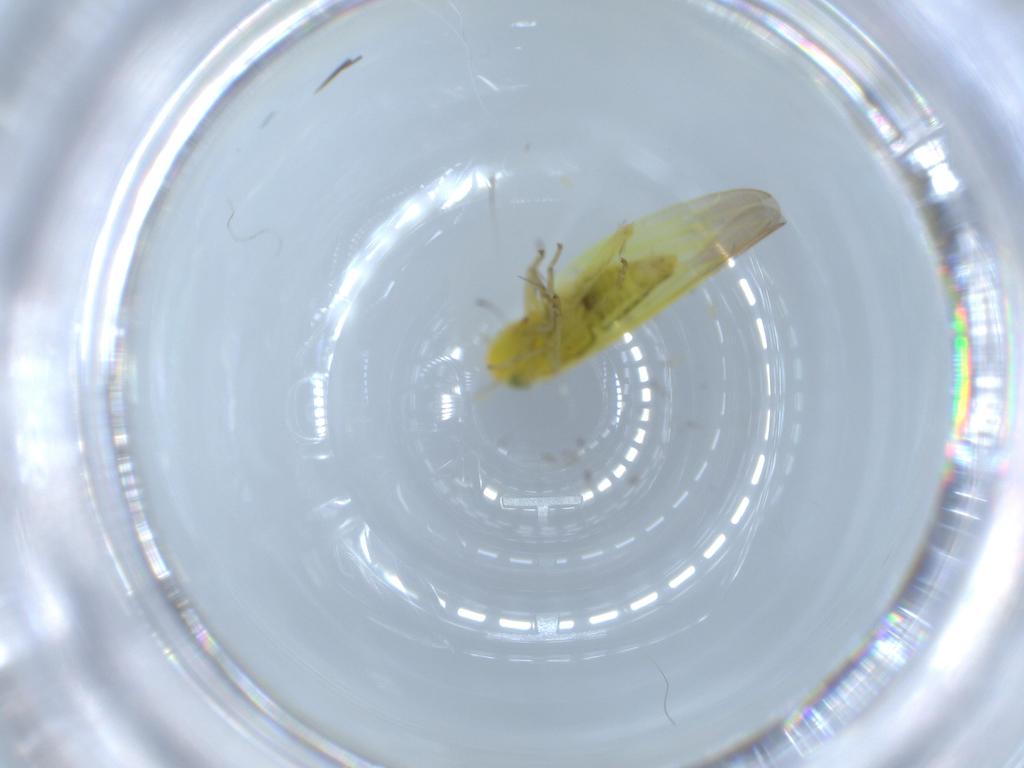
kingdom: Animalia
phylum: Arthropoda
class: Insecta
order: Hemiptera
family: Cicadellidae
